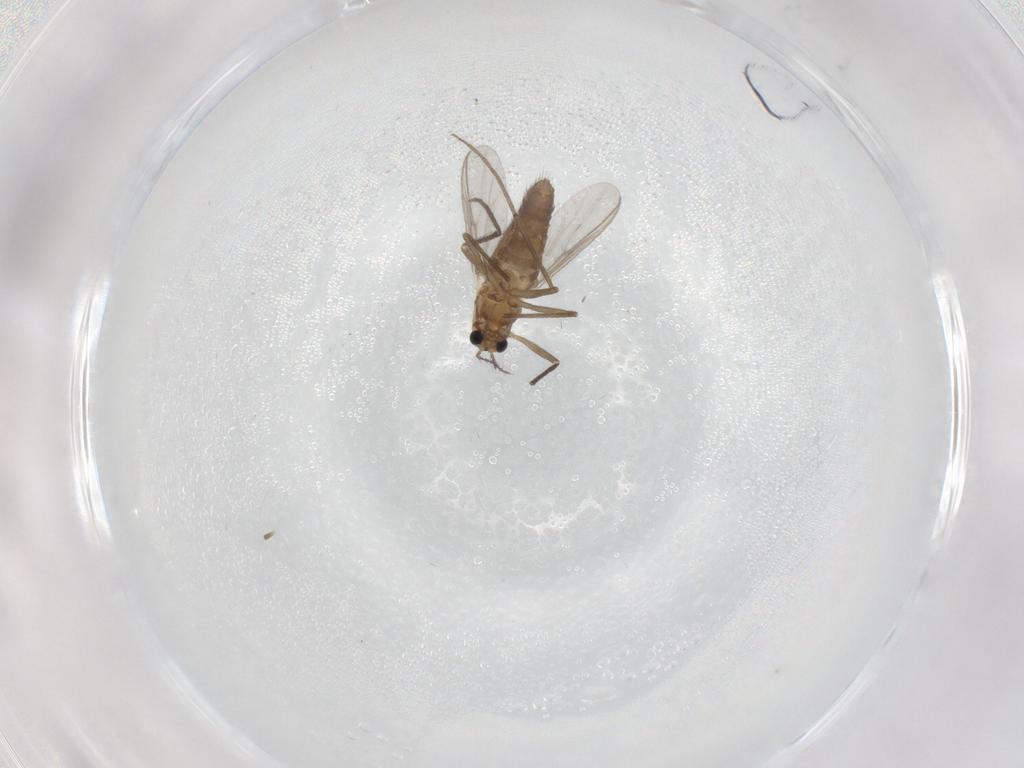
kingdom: Animalia
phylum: Arthropoda
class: Insecta
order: Diptera
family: Chironomidae
